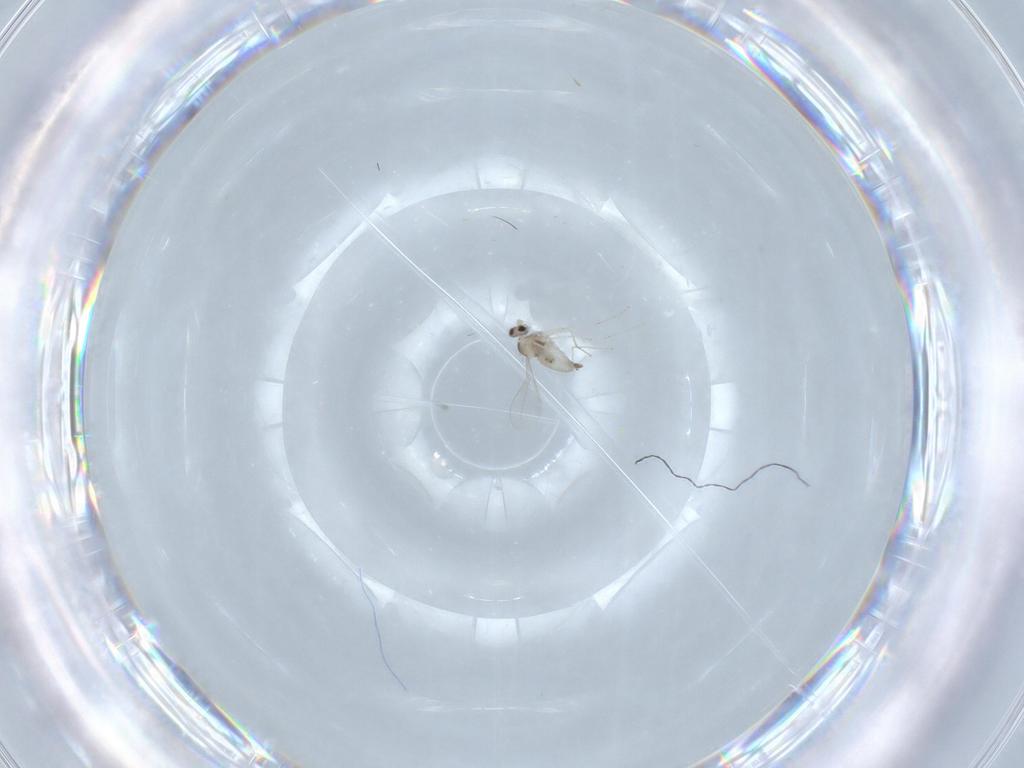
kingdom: Animalia
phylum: Arthropoda
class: Insecta
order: Diptera
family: Cecidomyiidae
